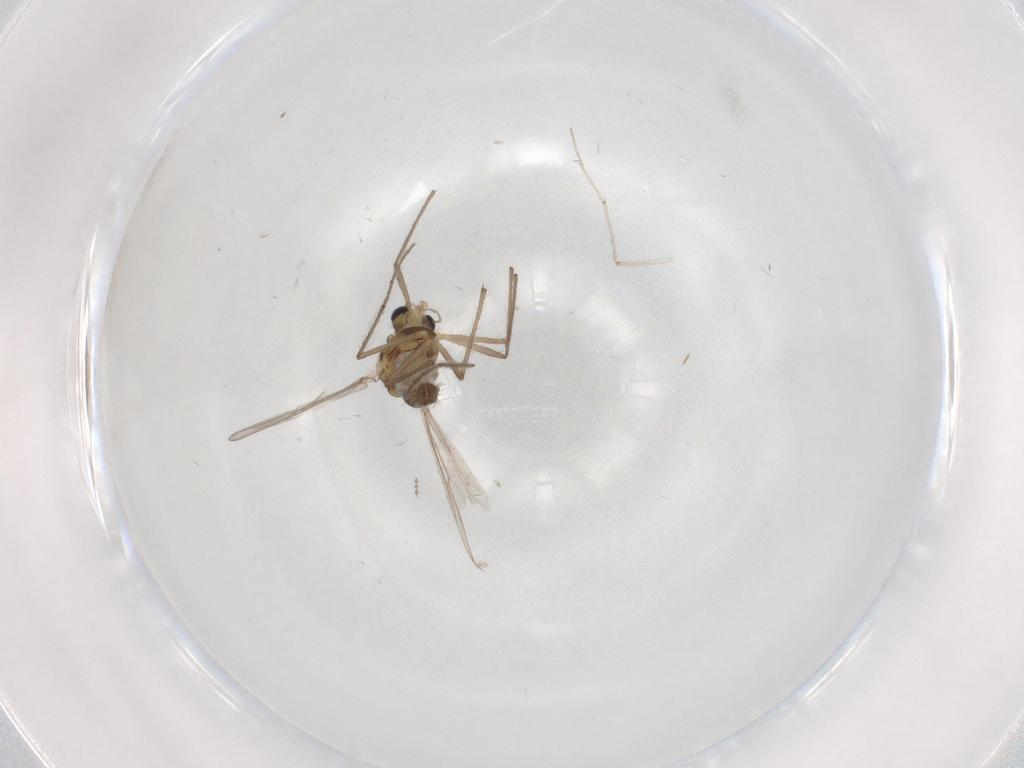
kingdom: Animalia
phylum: Arthropoda
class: Insecta
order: Diptera
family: Chironomidae
